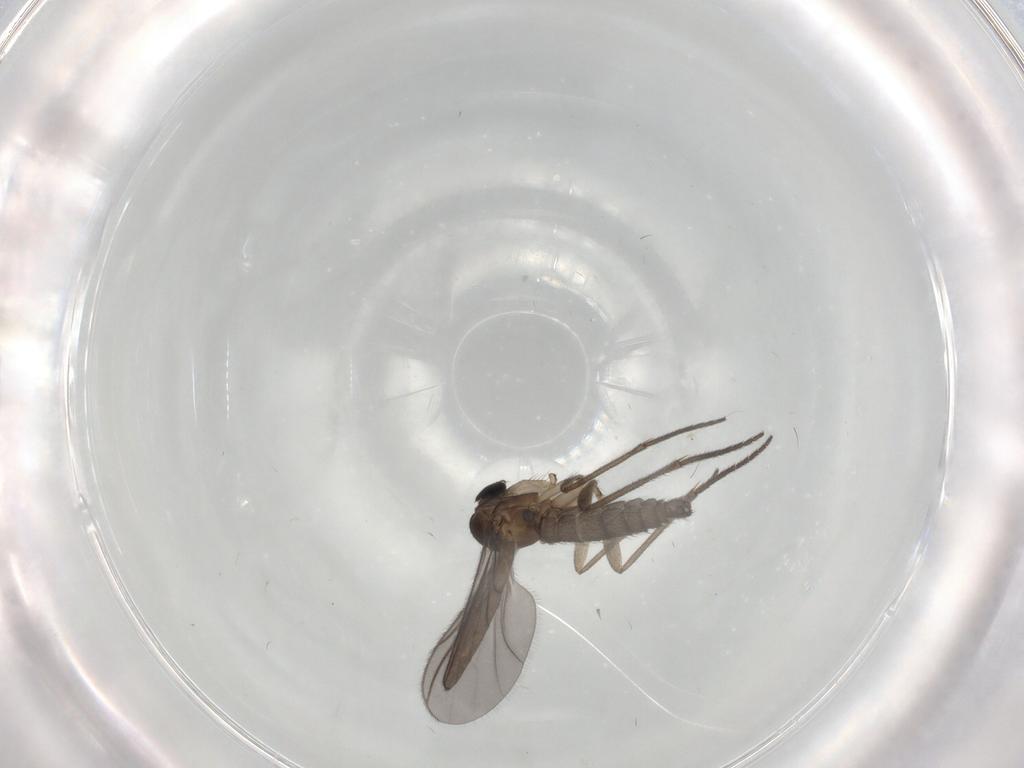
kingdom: Animalia
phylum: Arthropoda
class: Insecta
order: Diptera
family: Sciaridae
